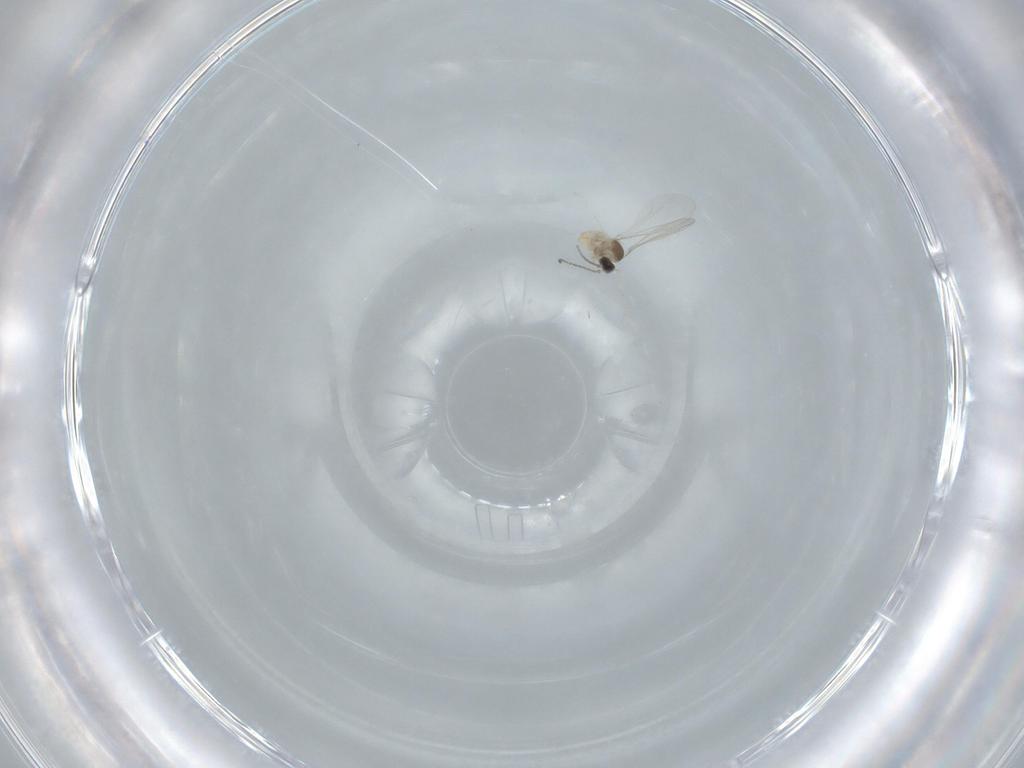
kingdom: Animalia
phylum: Arthropoda
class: Insecta
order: Diptera
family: Cecidomyiidae
